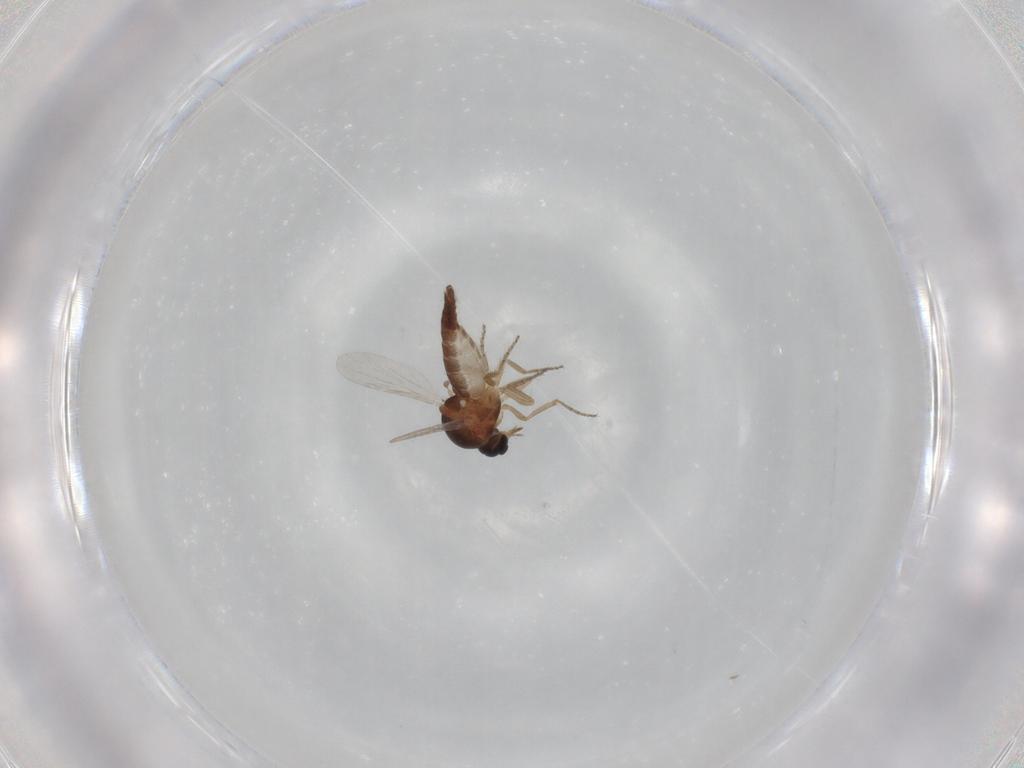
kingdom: Animalia
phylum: Arthropoda
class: Insecta
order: Diptera
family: Ceratopogonidae
